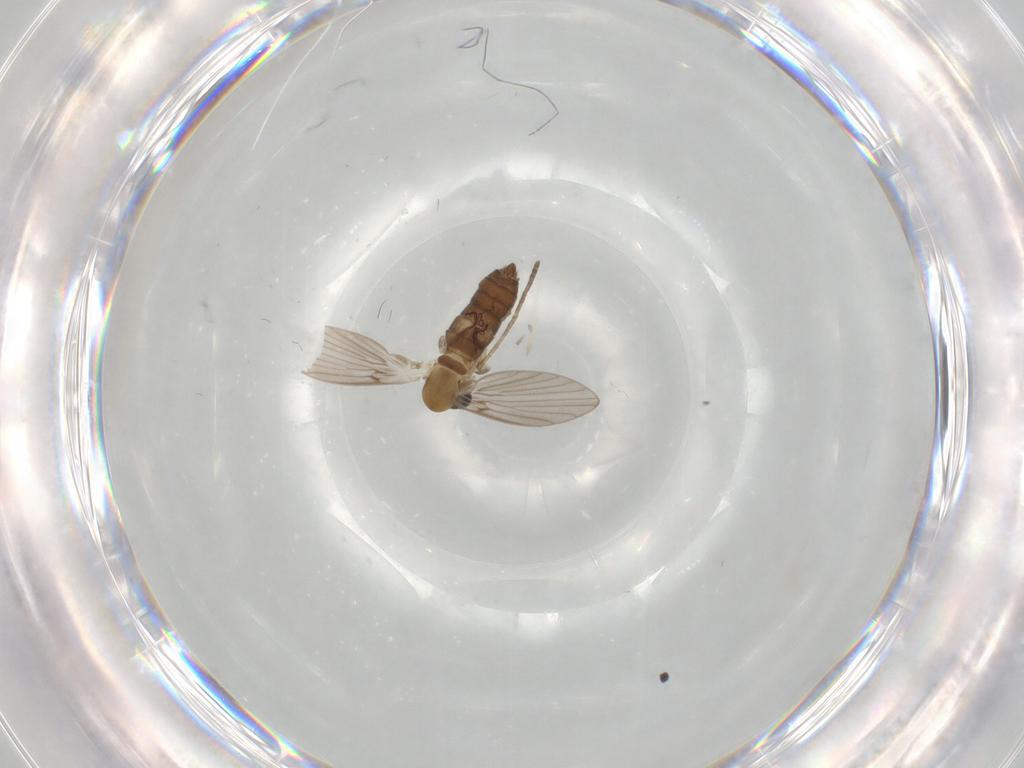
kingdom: Animalia
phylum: Arthropoda
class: Insecta
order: Diptera
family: Psychodidae
